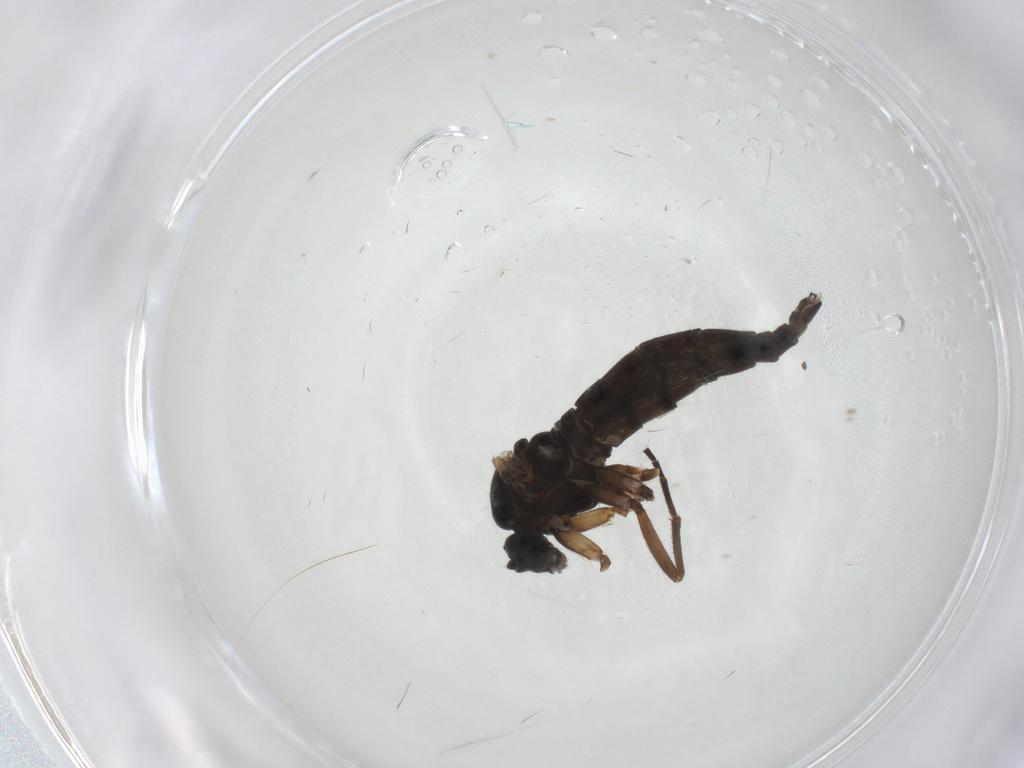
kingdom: Animalia
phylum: Arthropoda
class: Insecta
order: Diptera
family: Sciaridae
